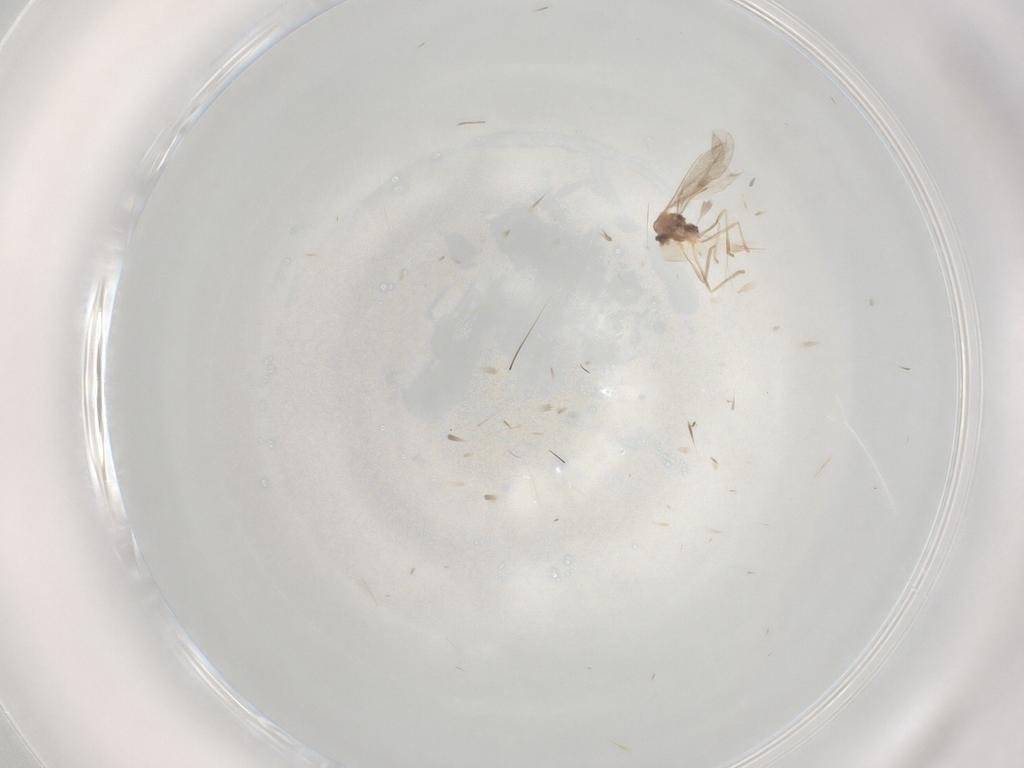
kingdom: Animalia
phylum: Arthropoda
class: Insecta
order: Diptera
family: Cecidomyiidae
